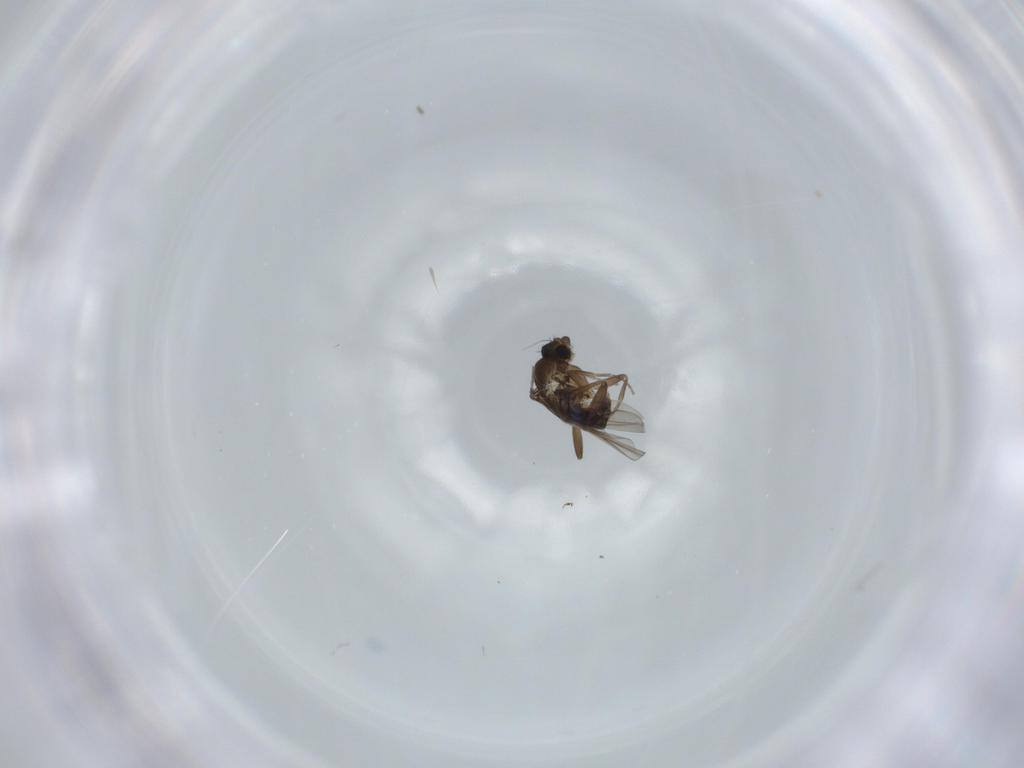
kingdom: Animalia
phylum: Arthropoda
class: Insecta
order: Diptera
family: Phoridae
